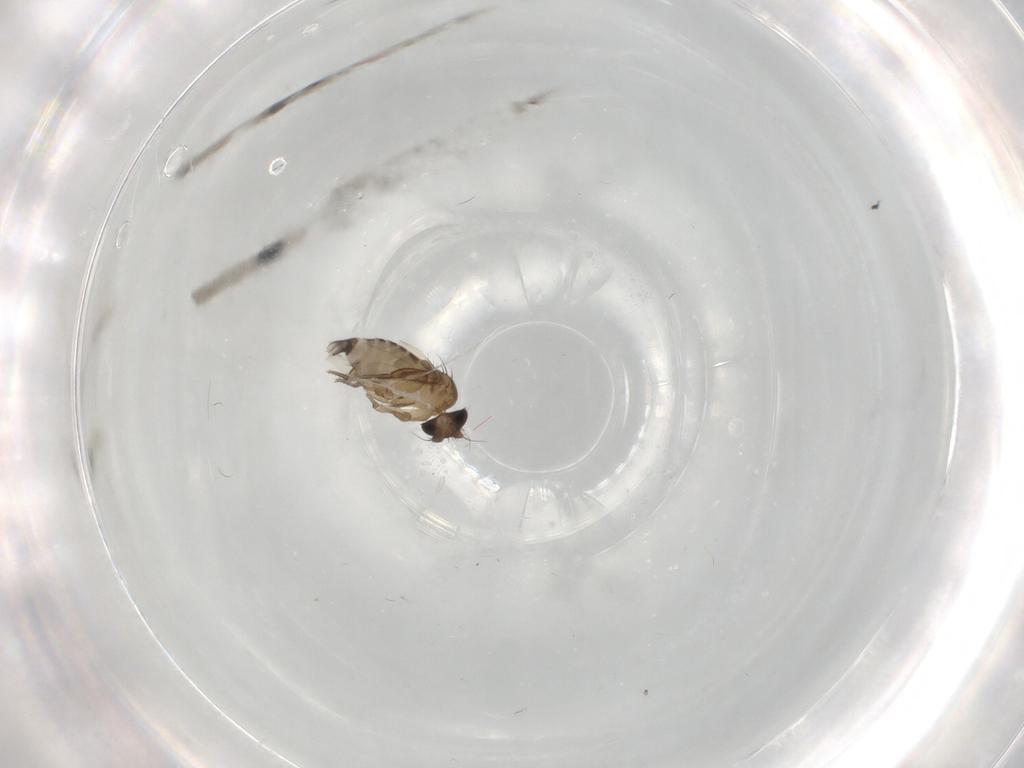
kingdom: Animalia
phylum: Arthropoda
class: Insecta
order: Diptera
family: Phoridae
